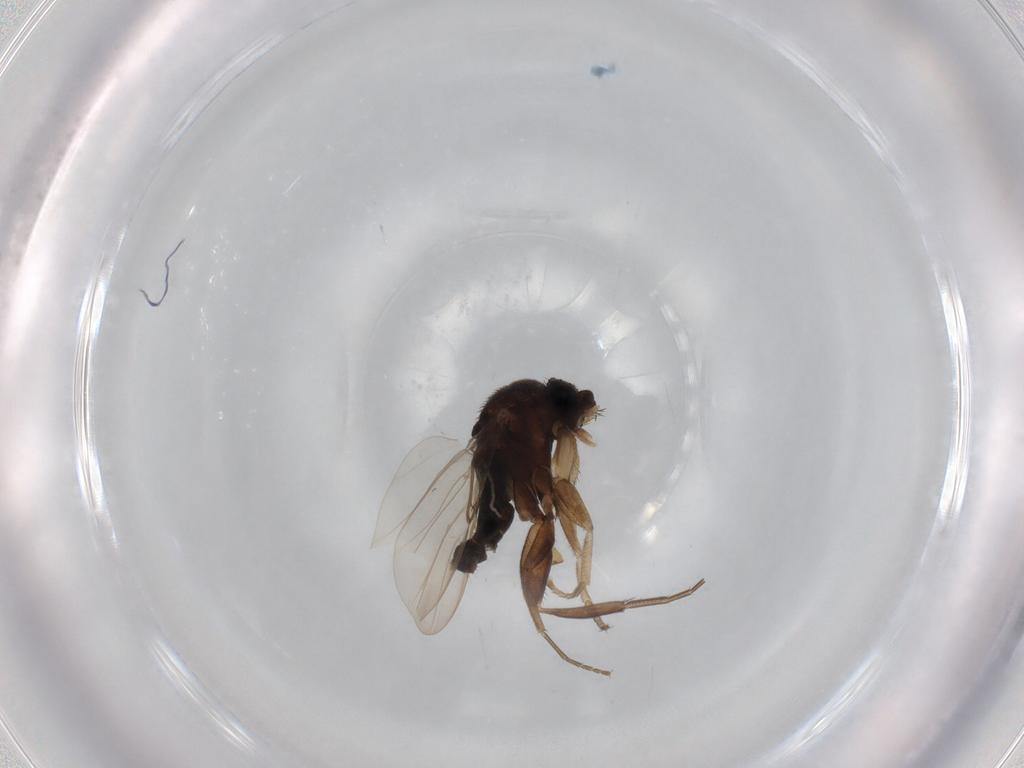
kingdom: Animalia
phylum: Arthropoda
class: Insecta
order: Diptera
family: Phoridae
